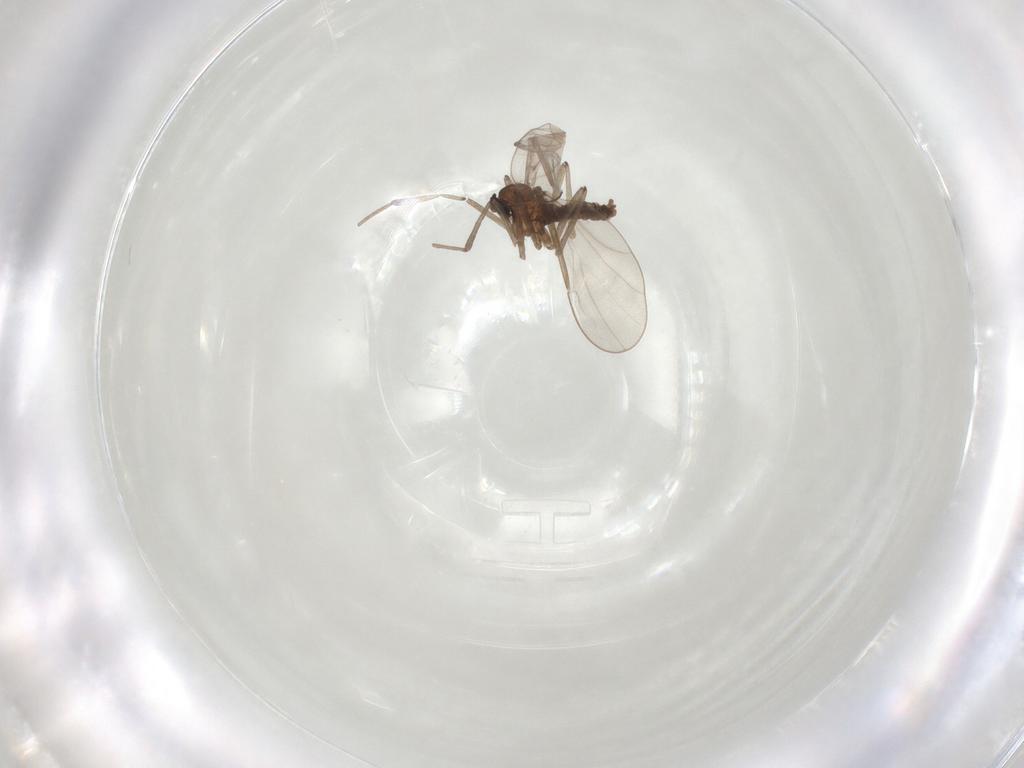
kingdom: Animalia
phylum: Arthropoda
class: Insecta
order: Diptera
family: Cecidomyiidae
